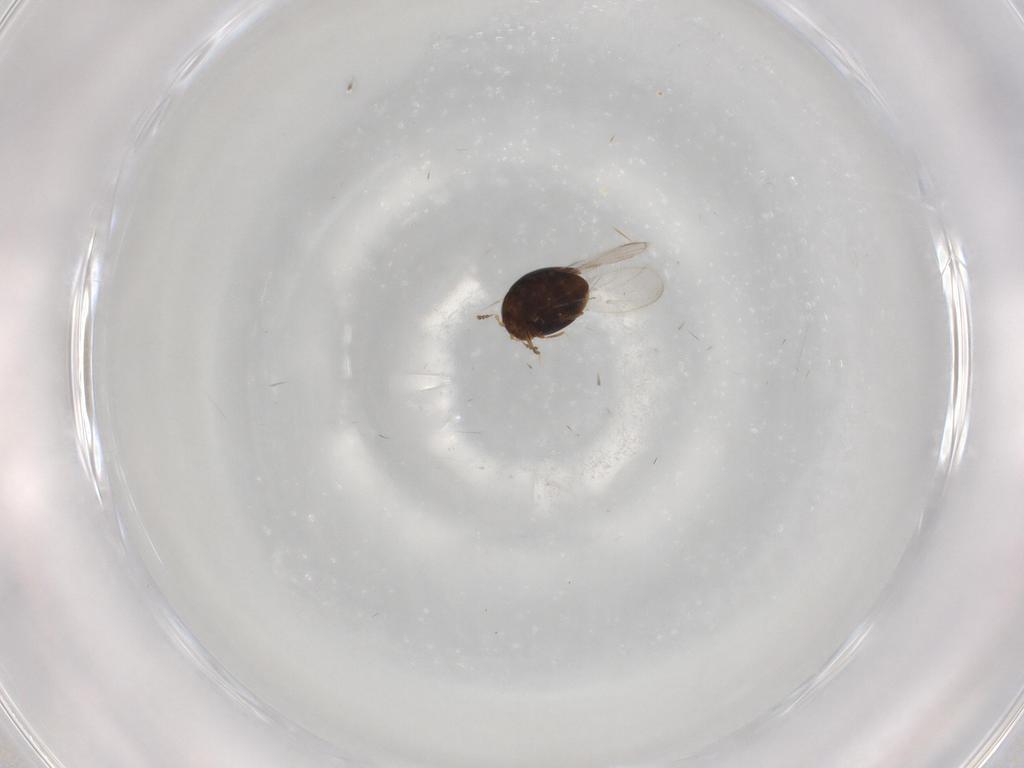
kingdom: Animalia
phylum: Arthropoda
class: Insecta
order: Coleoptera
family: Corylophidae
